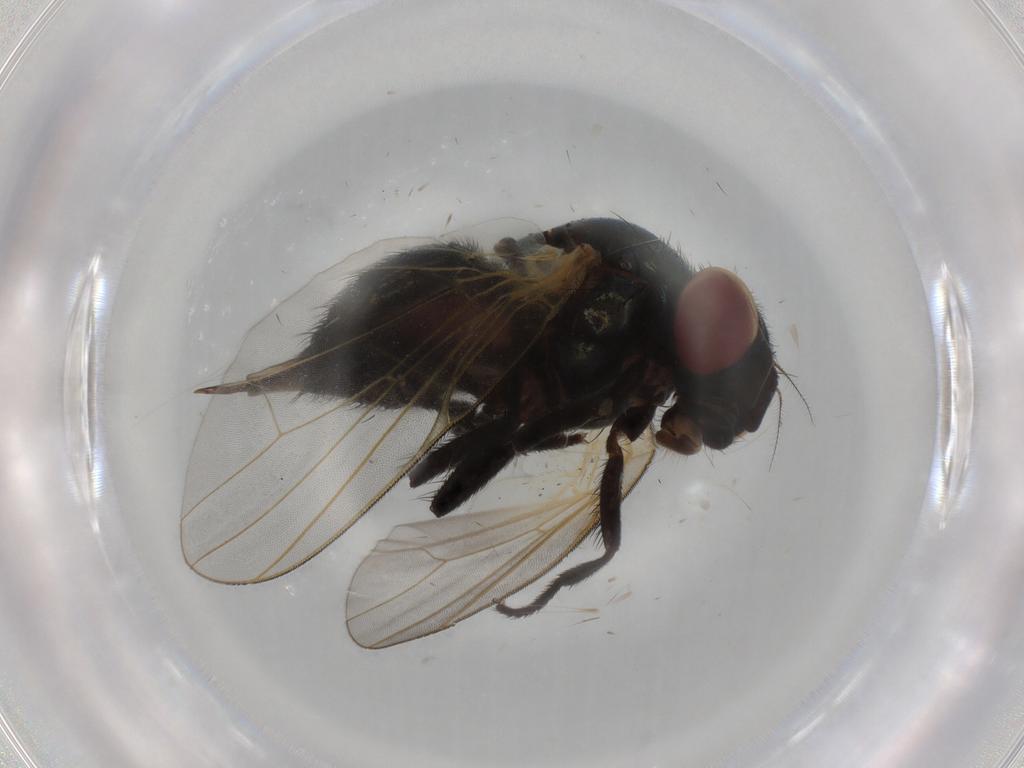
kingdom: Animalia
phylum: Arthropoda
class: Insecta
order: Diptera
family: Lonchaeidae
